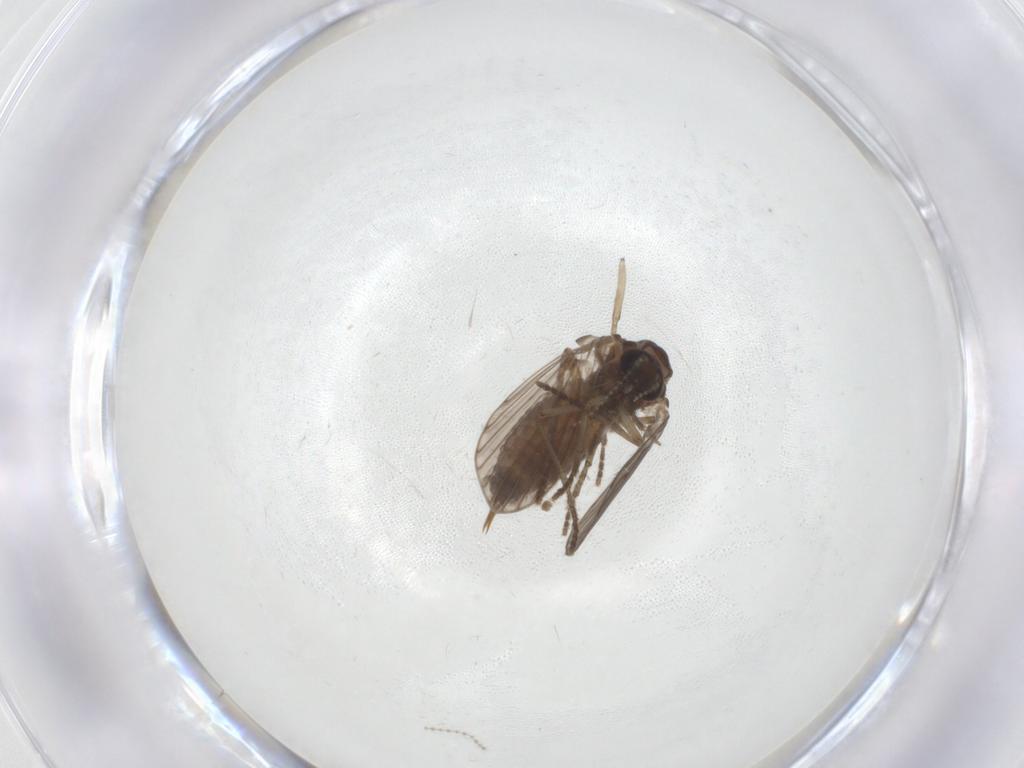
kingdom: Animalia
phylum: Arthropoda
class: Insecta
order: Diptera
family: Psychodidae
